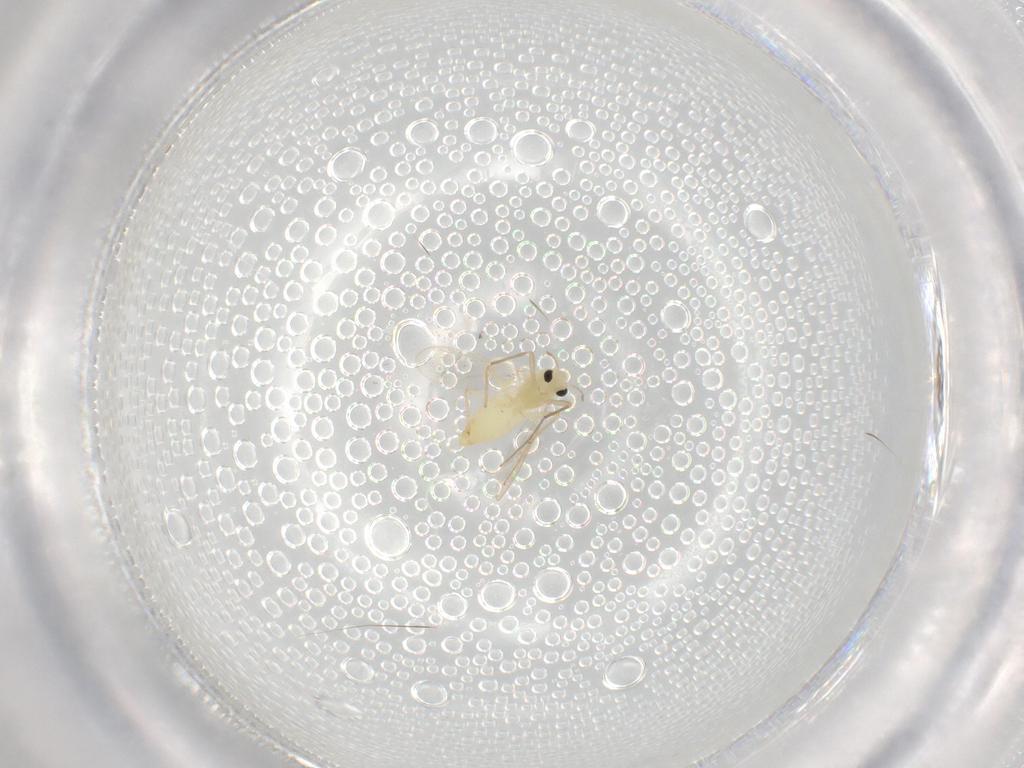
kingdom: Animalia
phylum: Arthropoda
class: Insecta
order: Diptera
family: Chironomidae
